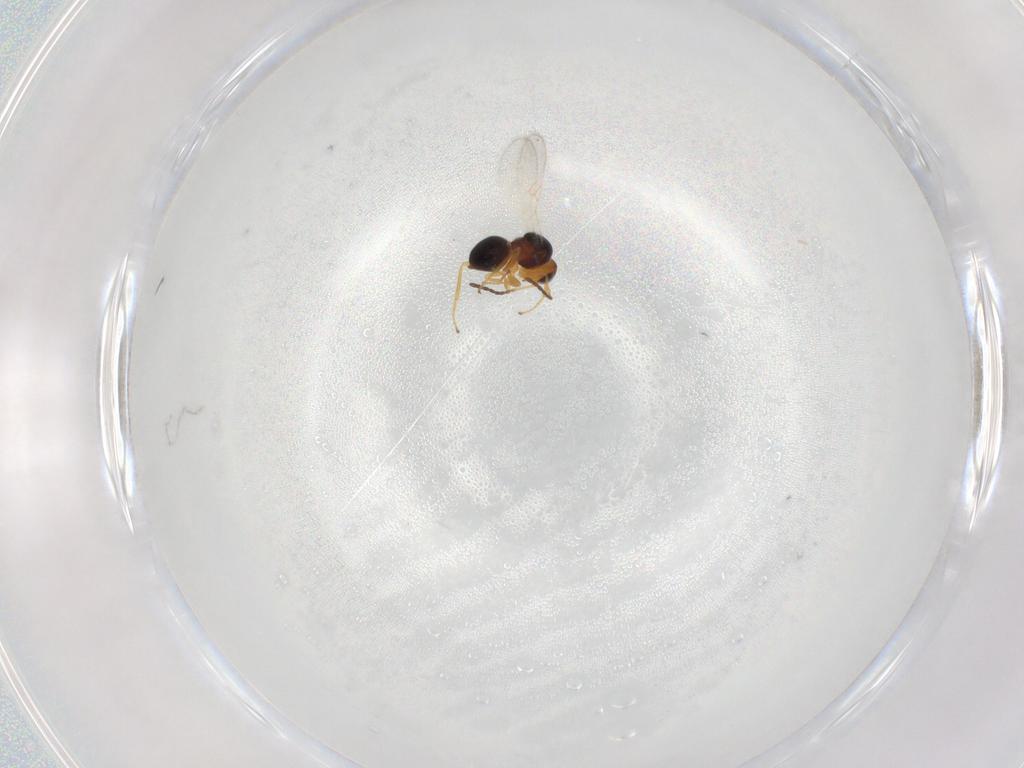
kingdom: Animalia
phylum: Arthropoda
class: Insecta
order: Hymenoptera
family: Figitidae
